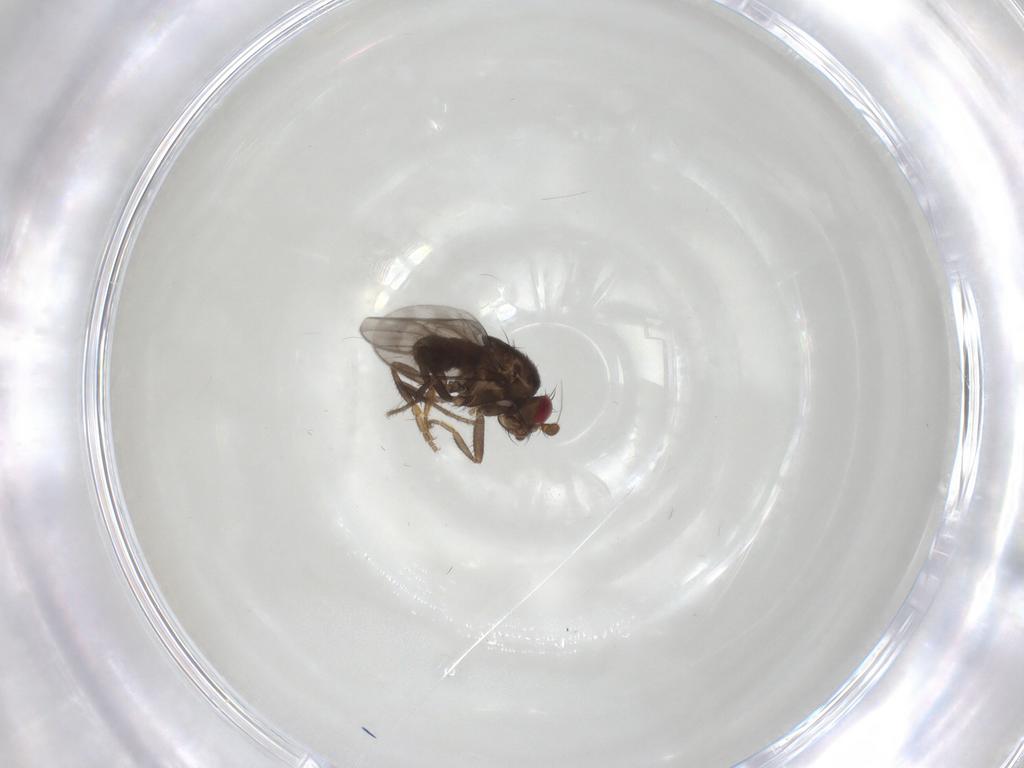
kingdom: Animalia
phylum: Arthropoda
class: Insecta
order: Diptera
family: Sphaeroceridae
